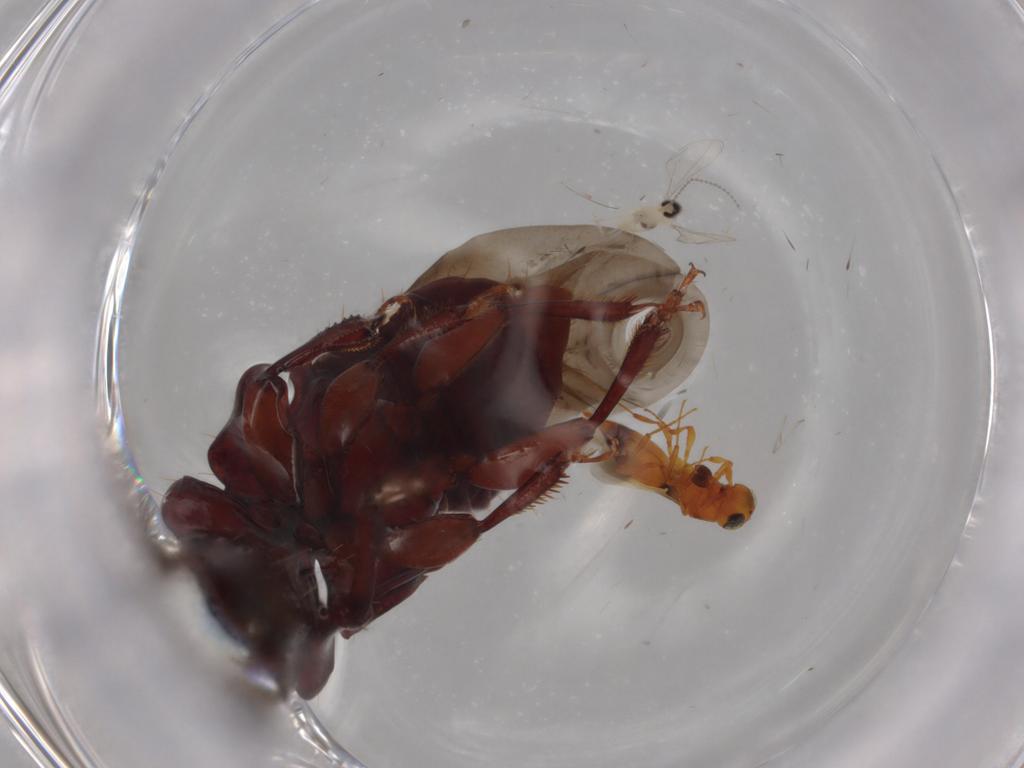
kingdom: Animalia
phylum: Arthropoda
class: Insecta
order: Diptera
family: Cecidomyiidae
